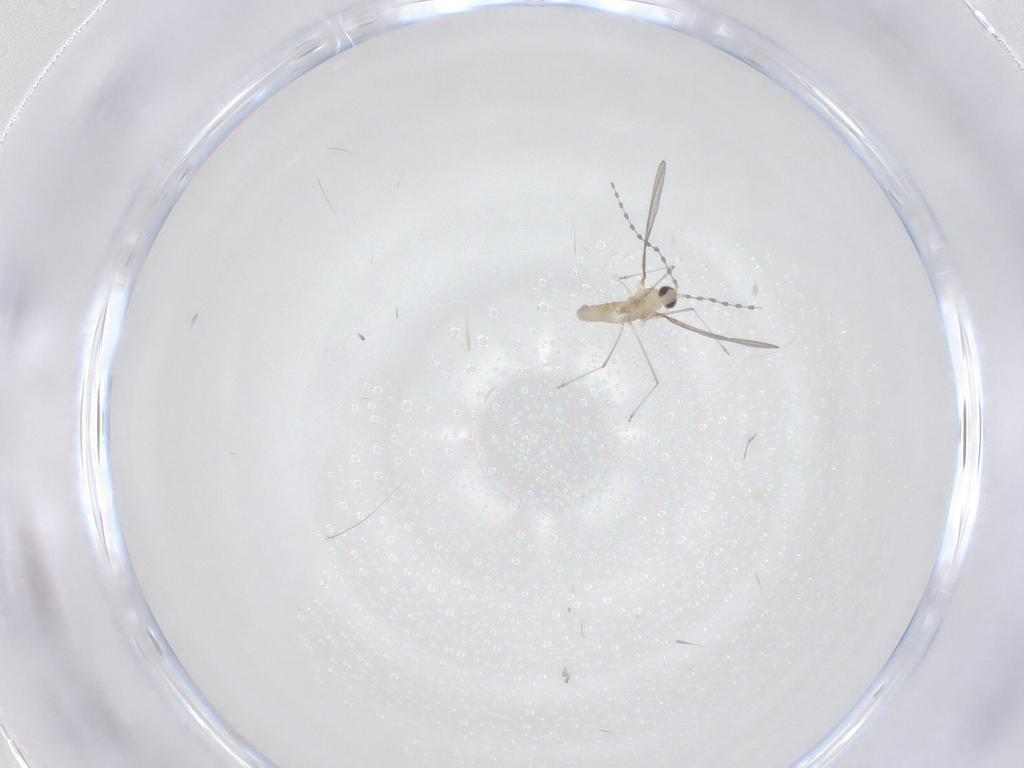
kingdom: Animalia
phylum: Arthropoda
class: Insecta
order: Diptera
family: Cecidomyiidae
